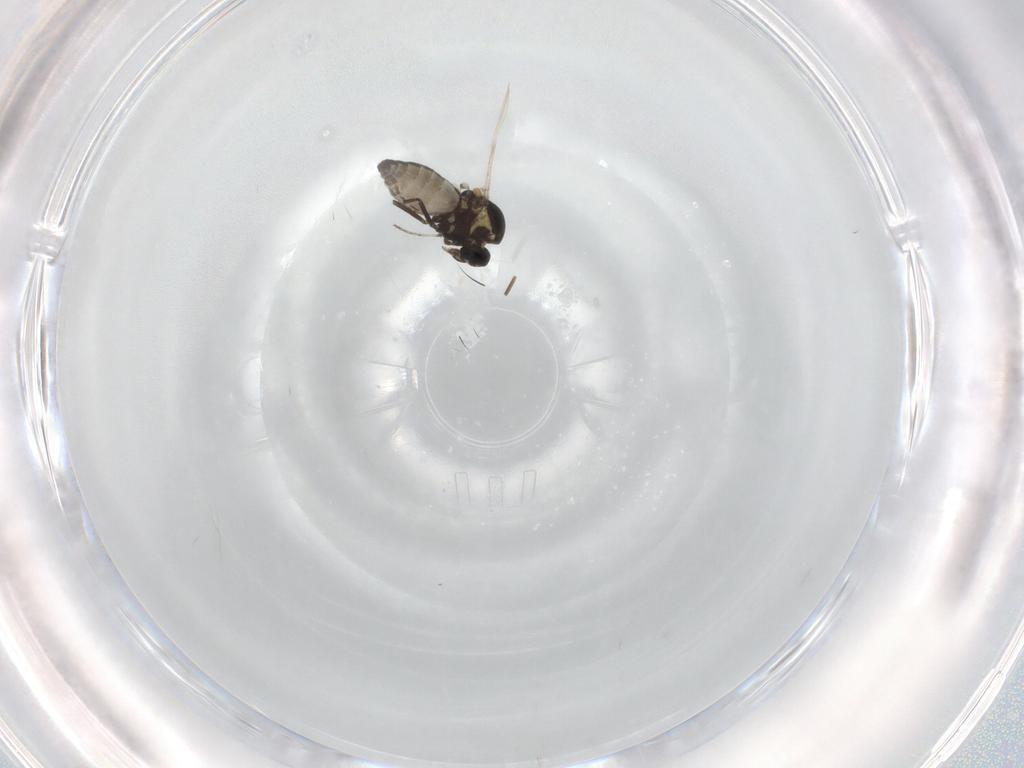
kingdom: Animalia
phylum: Arthropoda
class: Insecta
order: Diptera
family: Ceratopogonidae
